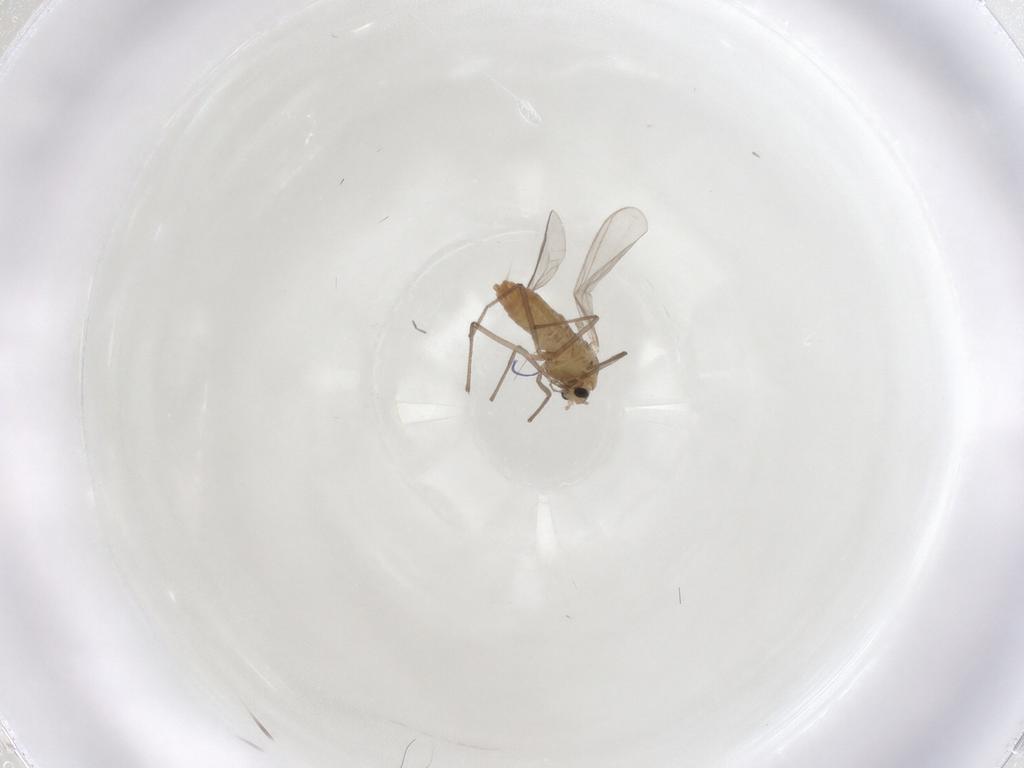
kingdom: Animalia
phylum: Arthropoda
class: Insecta
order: Diptera
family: Chironomidae
